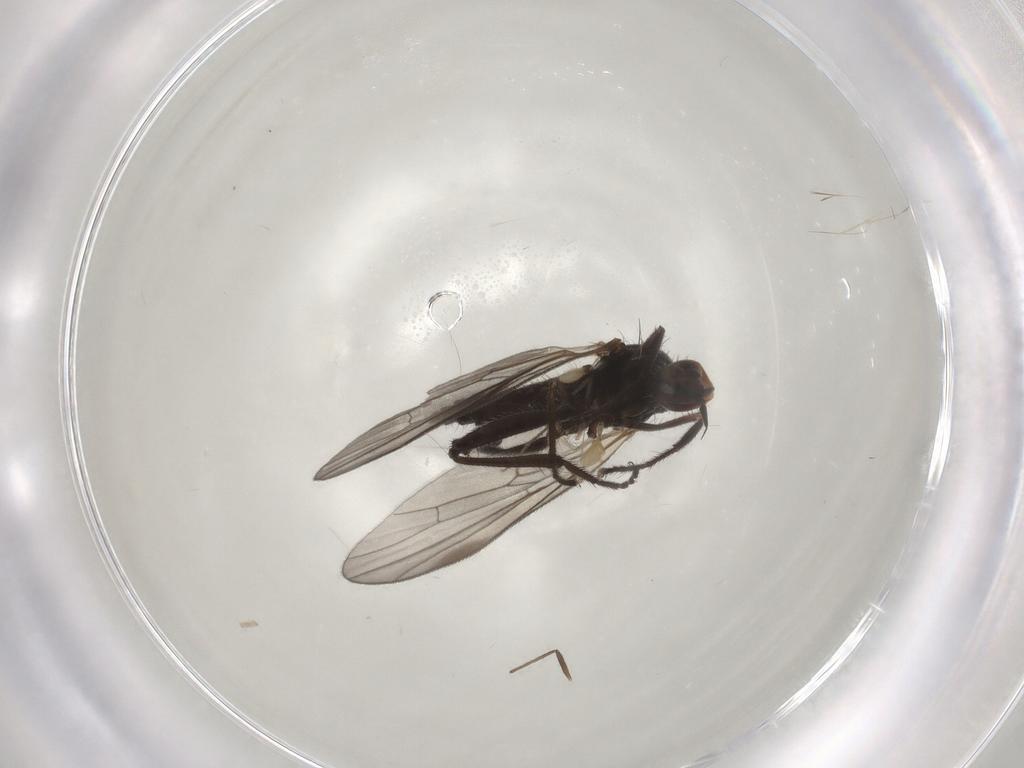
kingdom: Animalia
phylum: Arthropoda
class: Insecta
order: Diptera
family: Hybotidae
